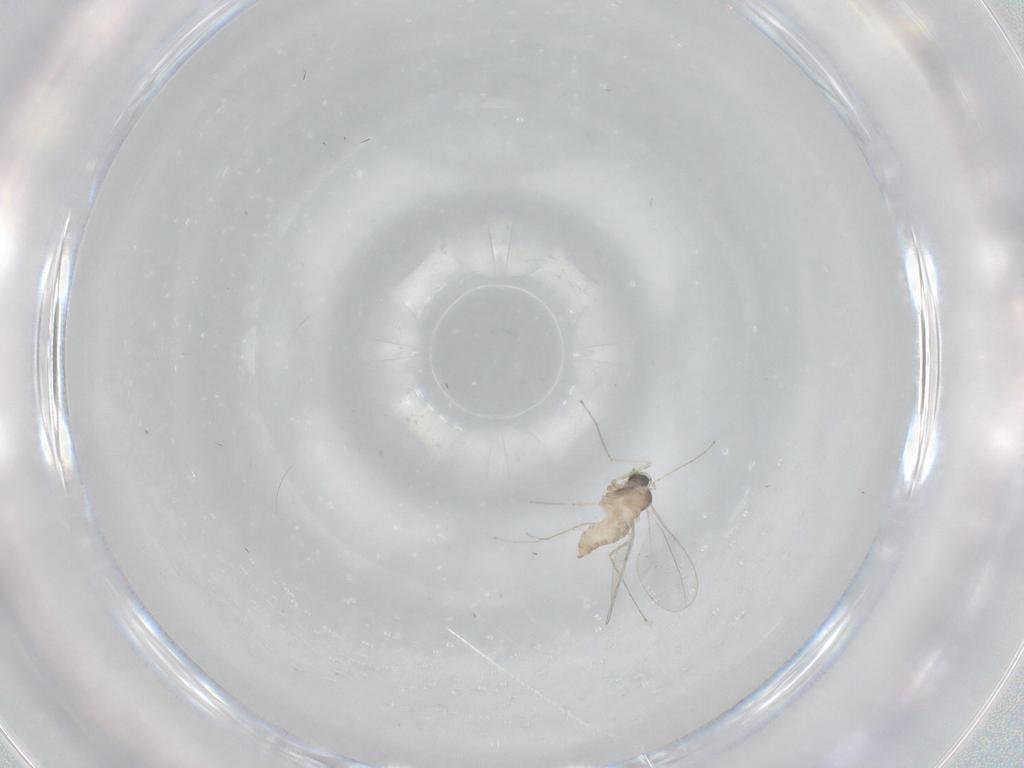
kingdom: Animalia
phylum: Arthropoda
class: Insecta
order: Diptera
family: Cecidomyiidae
